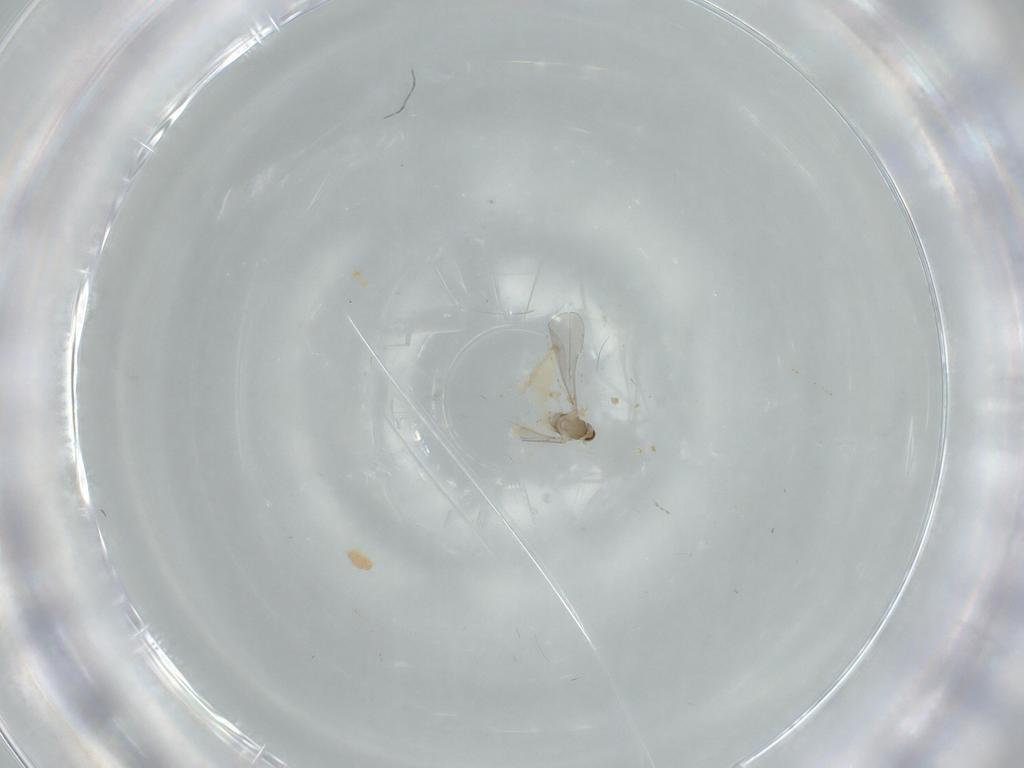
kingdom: Animalia
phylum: Arthropoda
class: Insecta
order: Diptera
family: Cecidomyiidae
